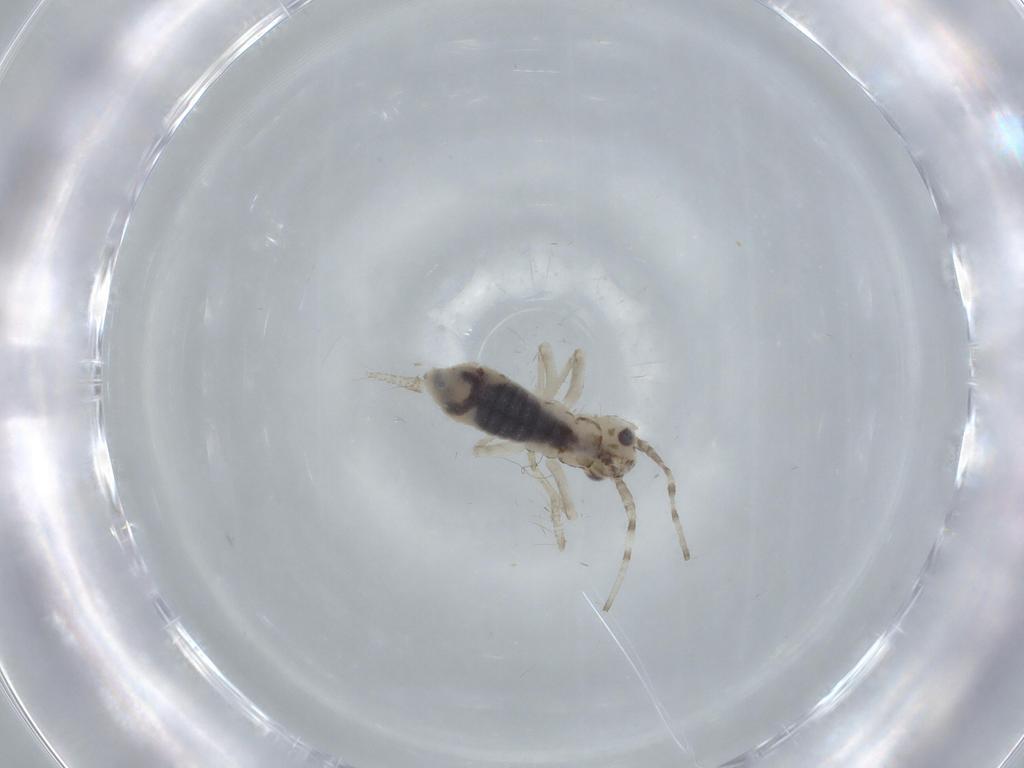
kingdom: Animalia
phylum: Arthropoda
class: Insecta
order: Orthoptera
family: Trigonidiidae
